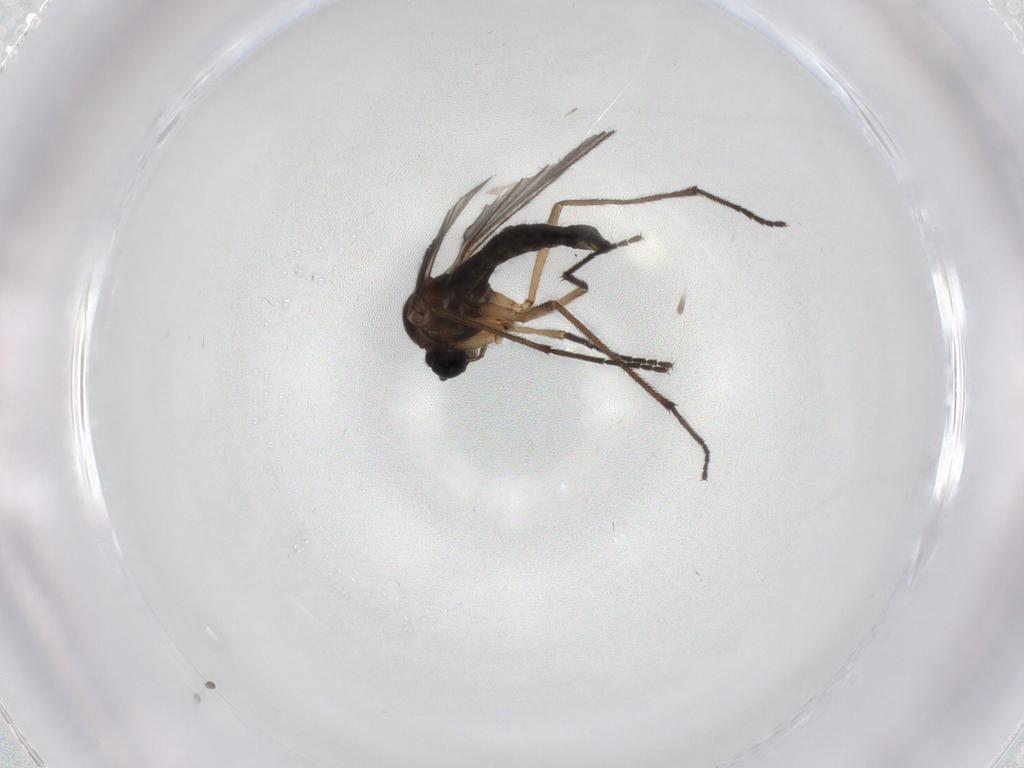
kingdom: Animalia
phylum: Arthropoda
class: Insecta
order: Diptera
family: Sciaridae
